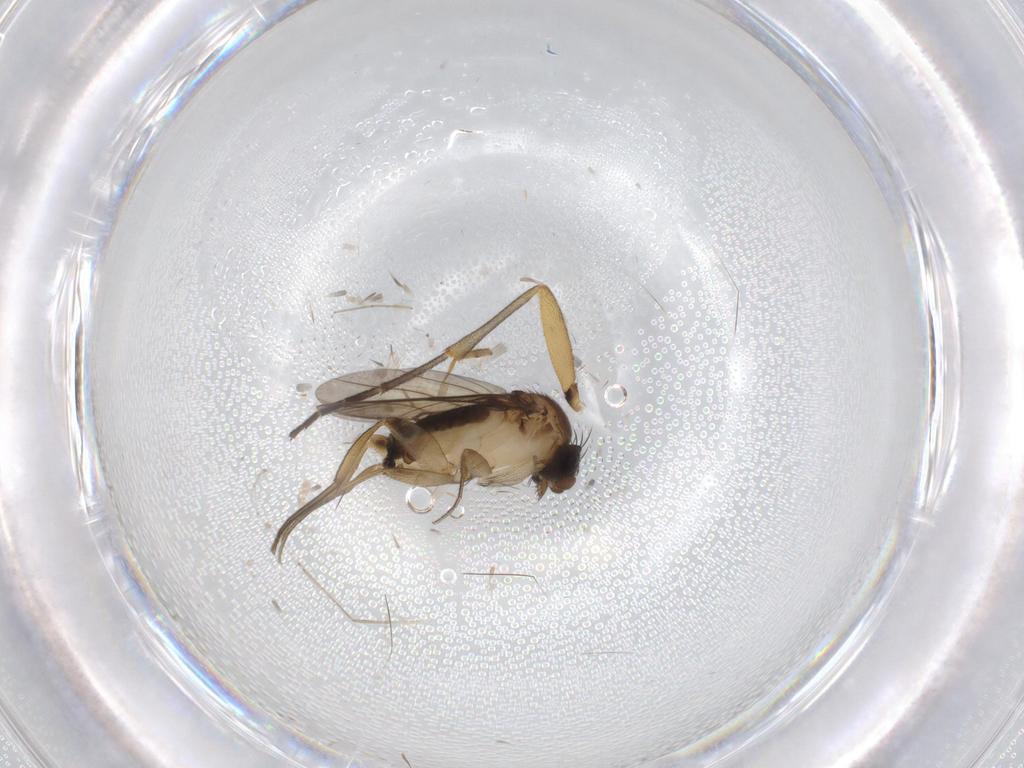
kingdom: Animalia
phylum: Arthropoda
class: Insecta
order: Diptera
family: Phoridae
